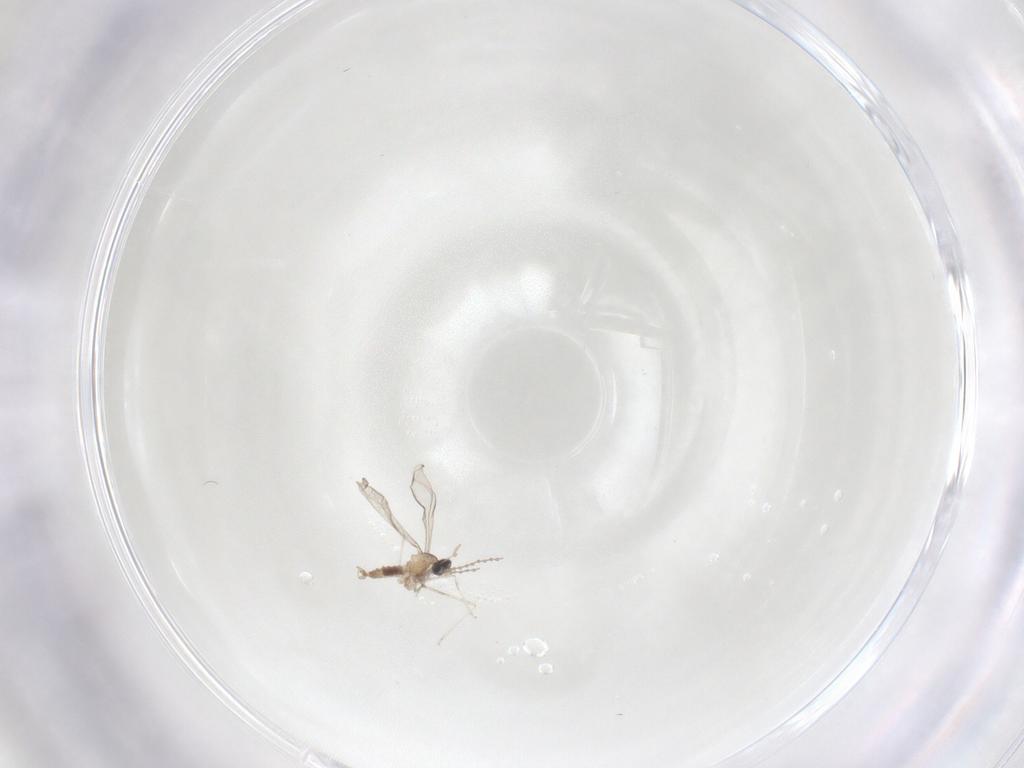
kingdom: Animalia
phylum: Arthropoda
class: Insecta
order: Diptera
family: Cecidomyiidae
